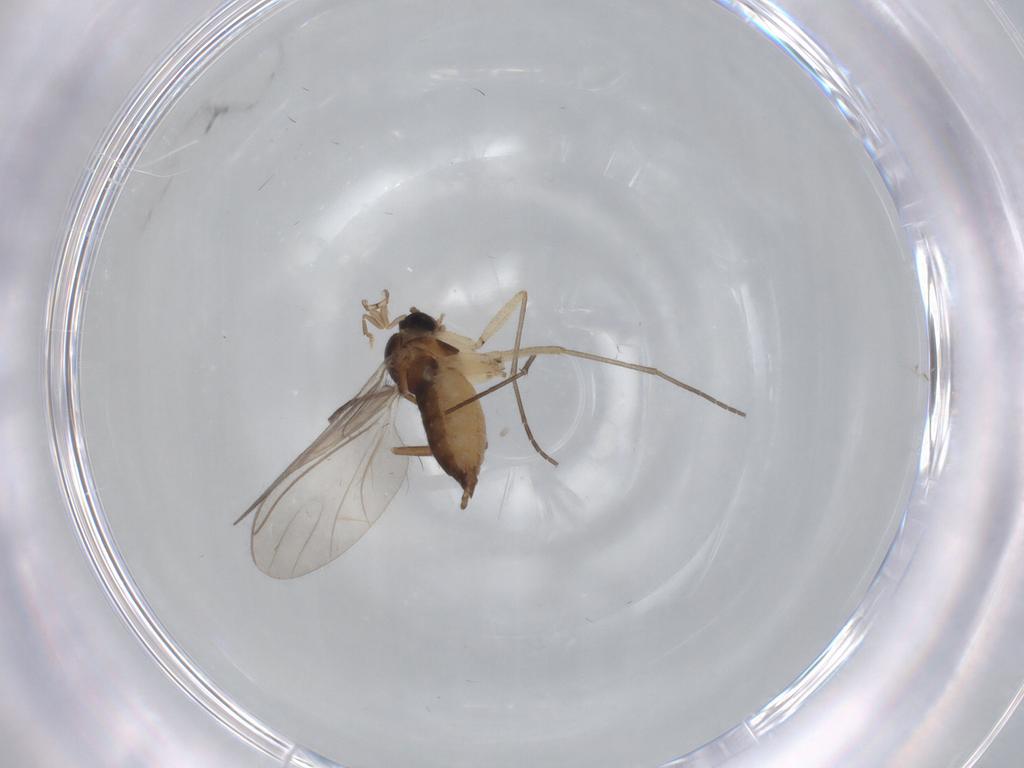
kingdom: Animalia
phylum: Arthropoda
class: Insecta
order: Diptera
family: Sciaridae
